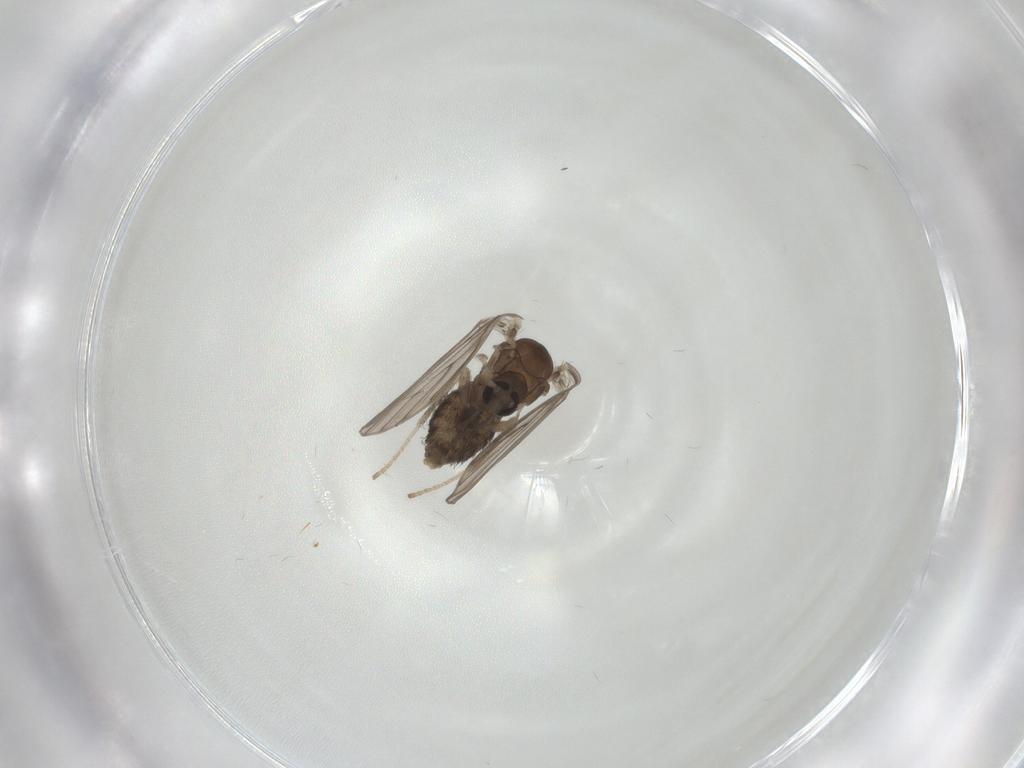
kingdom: Animalia
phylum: Arthropoda
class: Insecta
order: Diptera
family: Psychodidae
